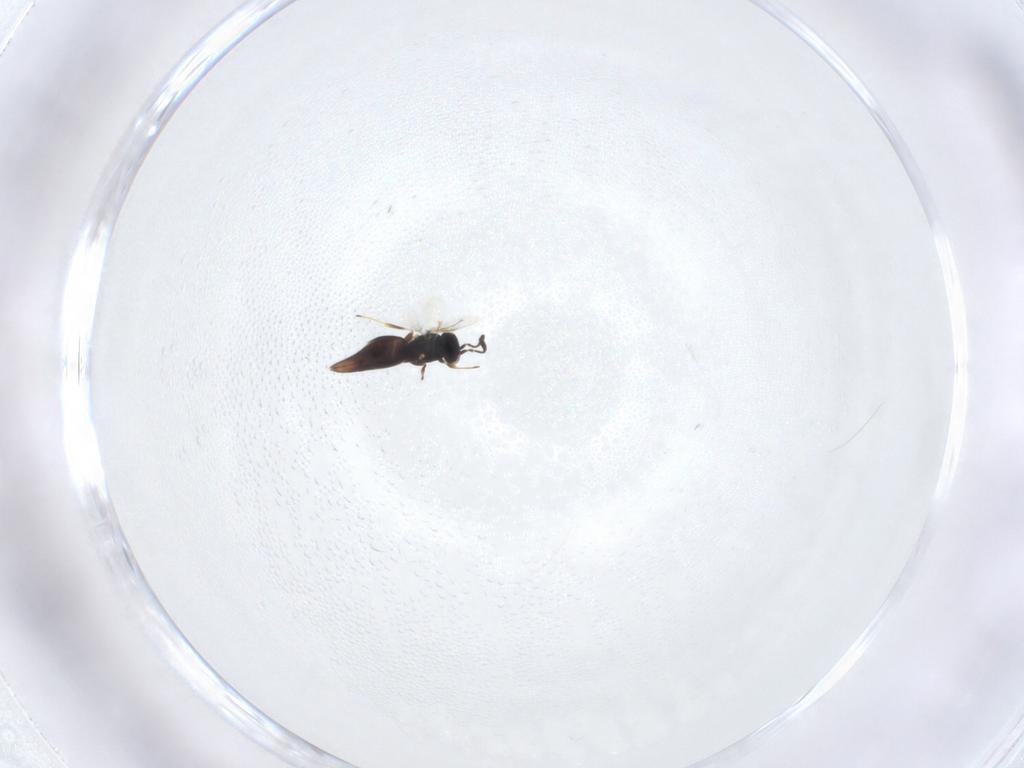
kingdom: Animalia
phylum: Arthropoda
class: Insecta
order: Hymenoptera
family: Scelionidae
